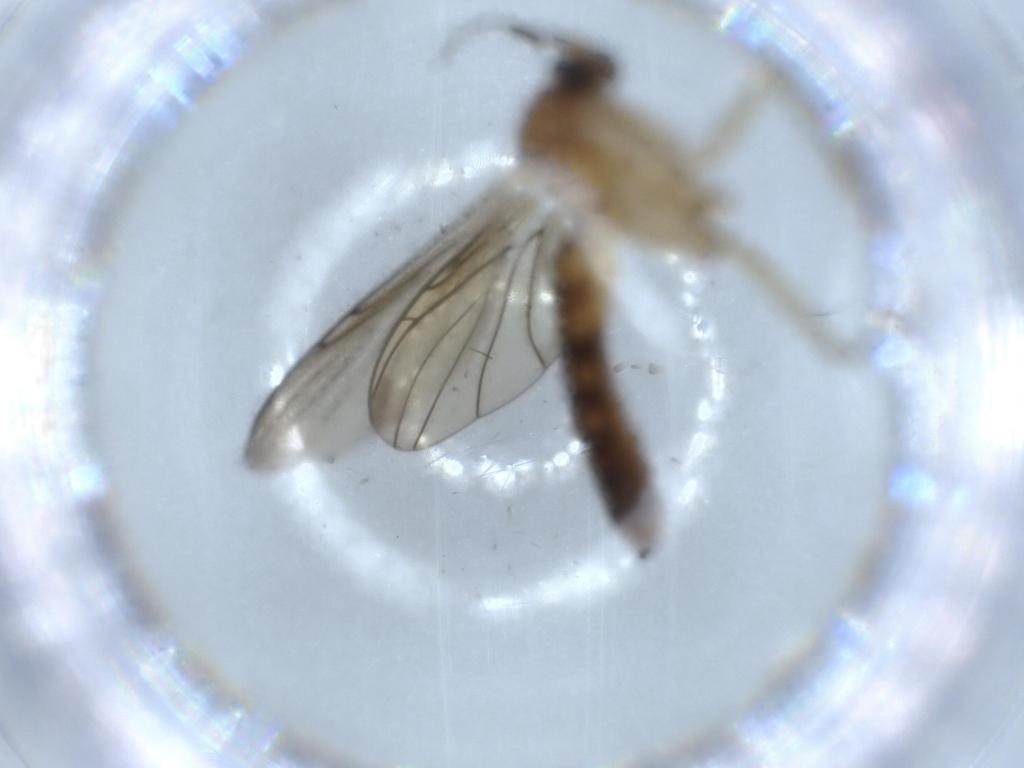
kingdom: Animalia
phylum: Arthropoda
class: Insecta
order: Diptera
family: Keroplatidae
